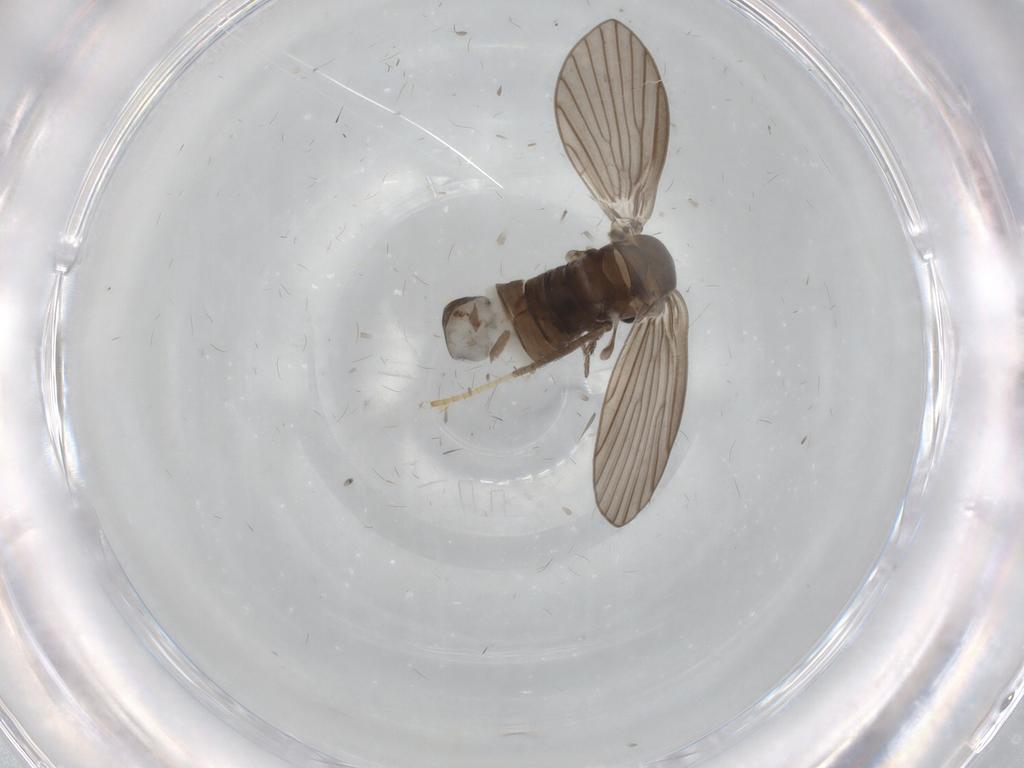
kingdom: Animalia
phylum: Arthropoda
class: Insecta
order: Diptera
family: Psychodidae
